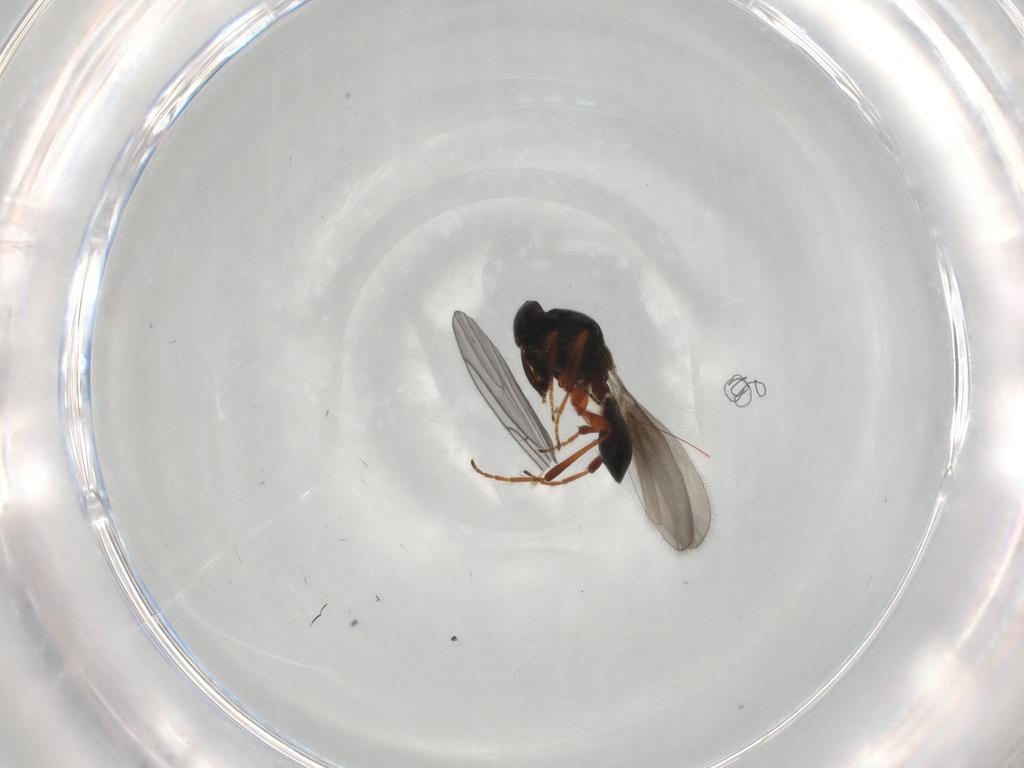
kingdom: Animalia
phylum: Arthropoda
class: Insecta
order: Hymenoptera
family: Platygastridae
